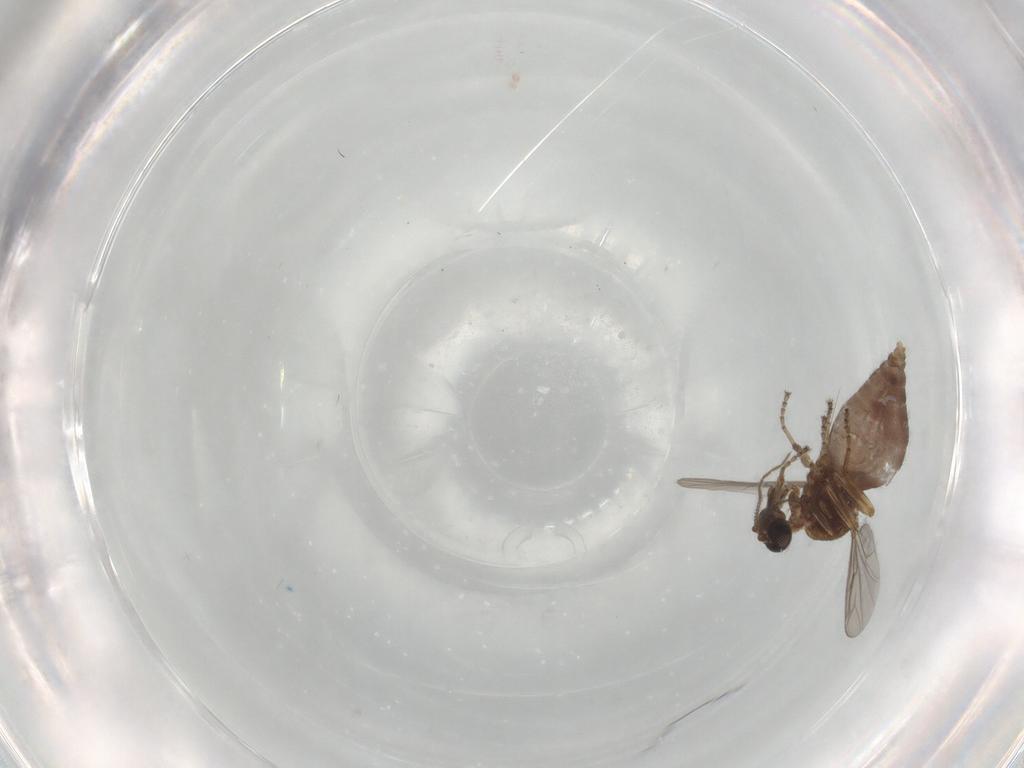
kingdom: Animalia
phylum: Arthropoda
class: Insecta
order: Diptera
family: Ceratopogonidae
